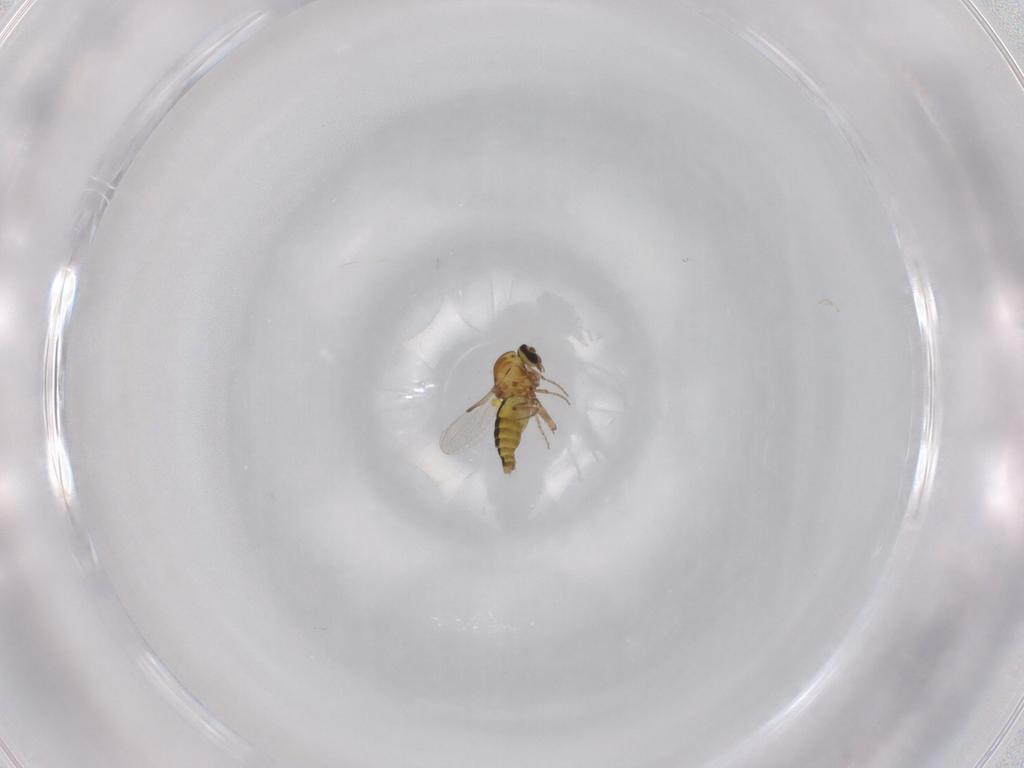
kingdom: Animalia
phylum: Arthropoda
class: Insecta
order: Diptera
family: Ceratopogonidae
